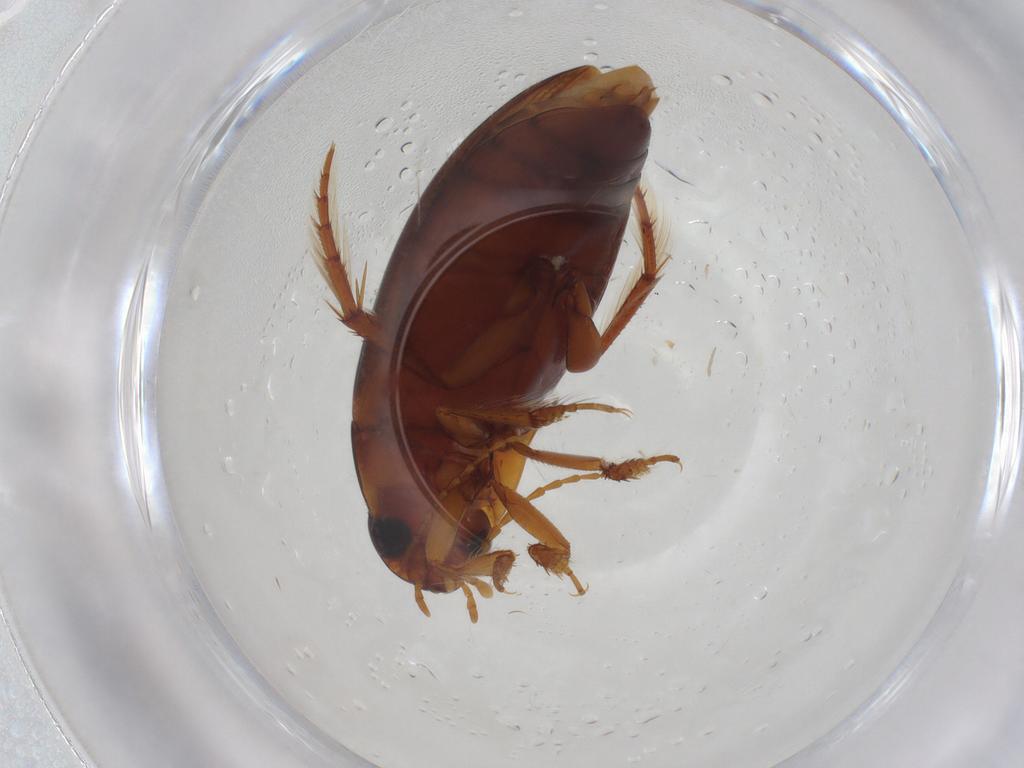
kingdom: Animalia
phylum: Arthropoda
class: Insecta
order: Coleoptera
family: Dytiscidae
